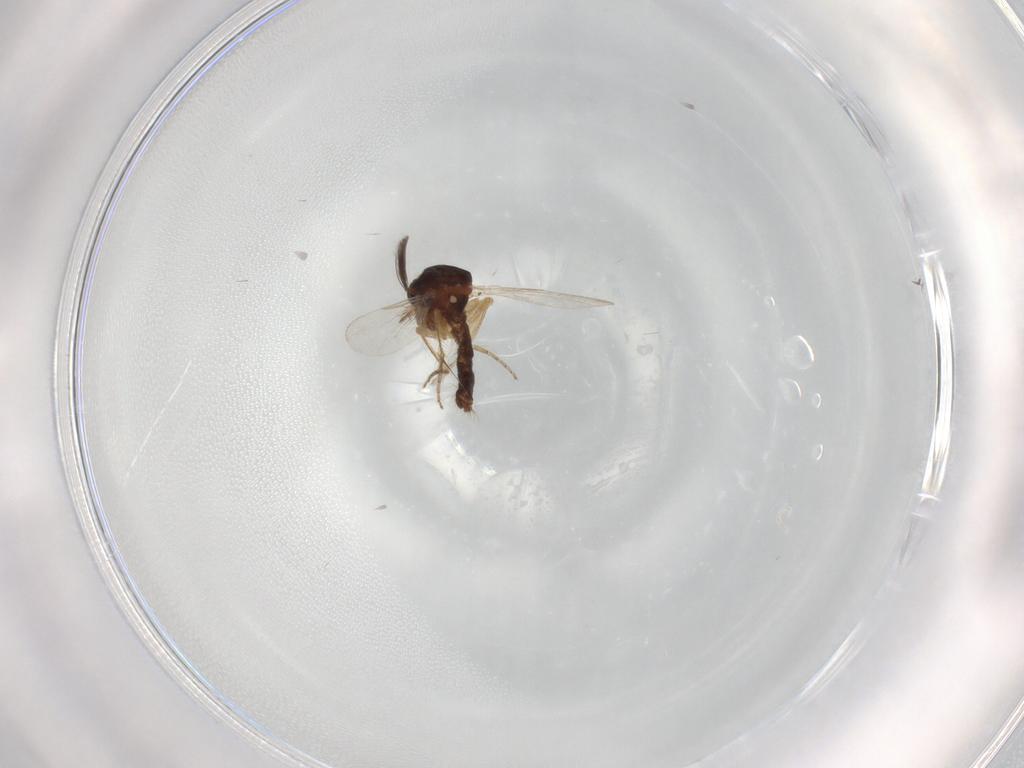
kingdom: Animalia
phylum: Arthropoda
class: Insecta
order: Diptera
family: Ceratopogonidae
